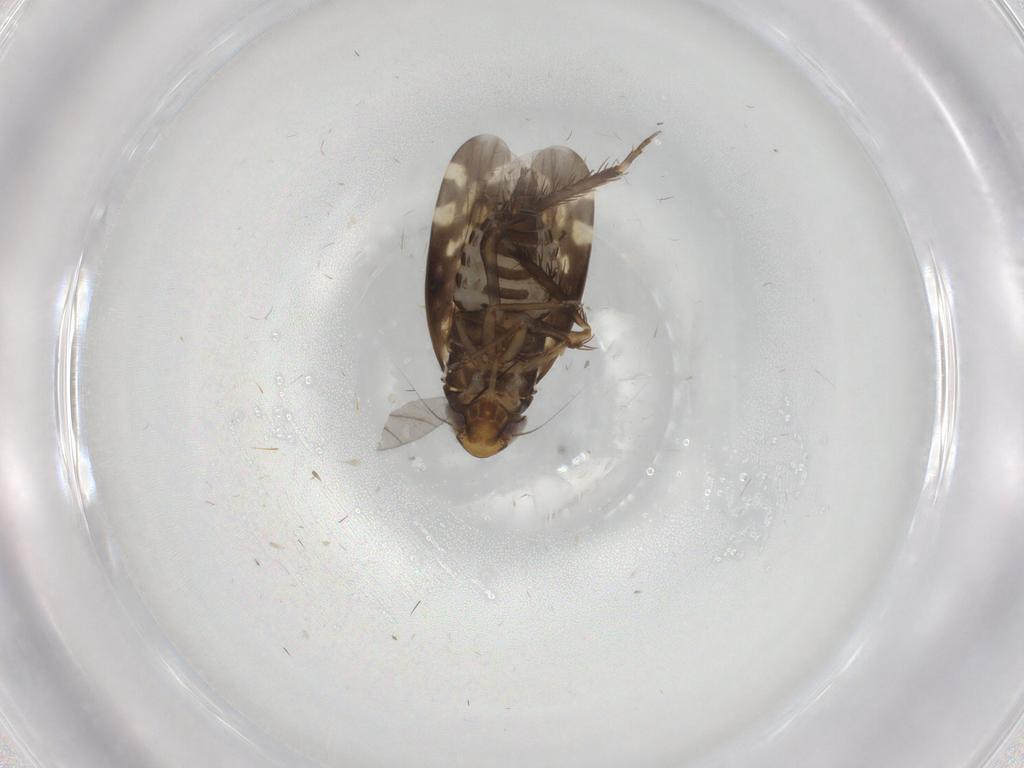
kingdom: Animalia
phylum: Arthropoda
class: Insecta
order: Hemiptera
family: Cicadellidae
